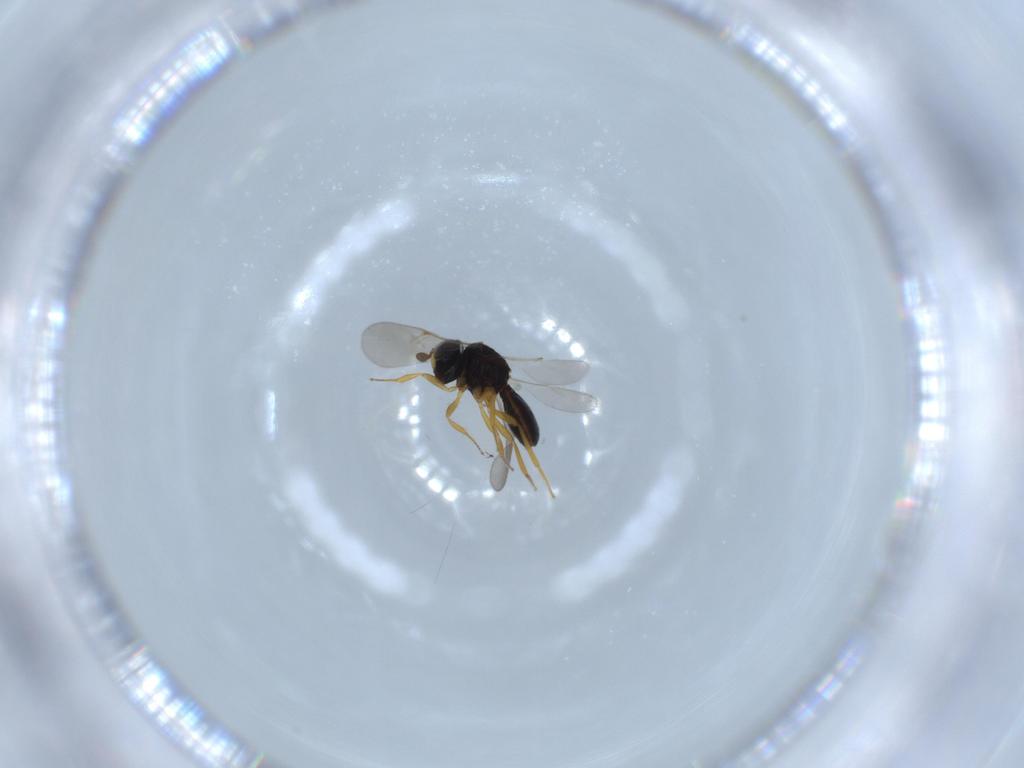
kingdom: Animalia
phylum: Arthropoda
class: Insecta
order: Hymenoptera
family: Scelionidae
